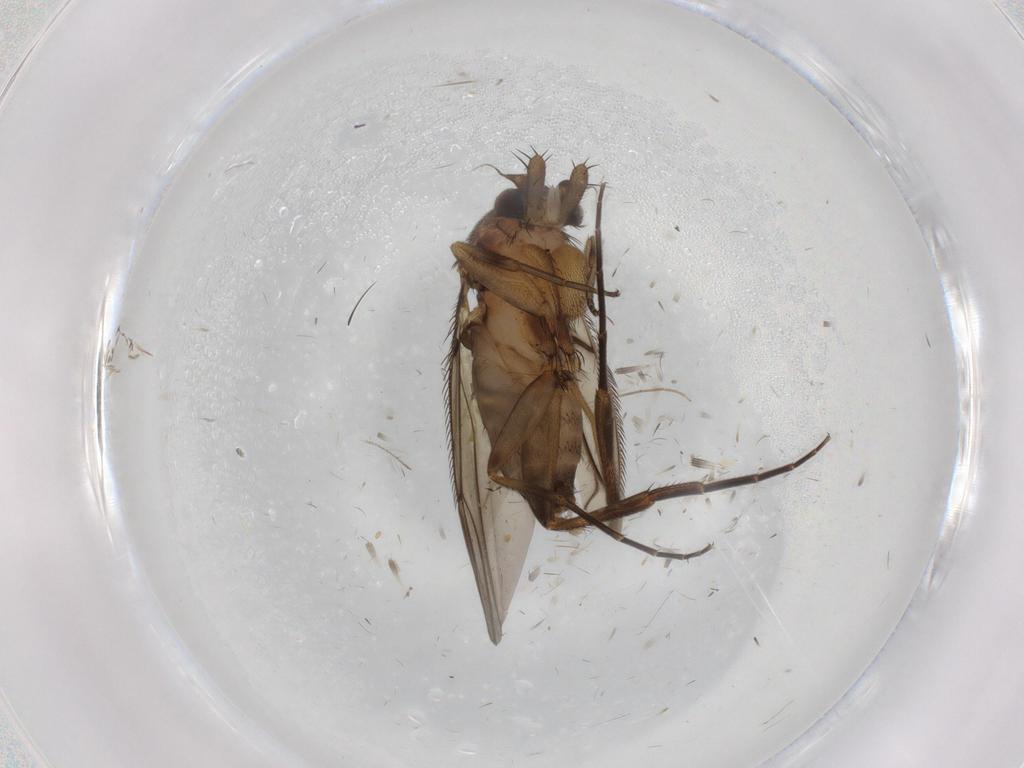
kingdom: Animalia
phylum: Arthropoda
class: Insecta
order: Diptera
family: Phoridae
